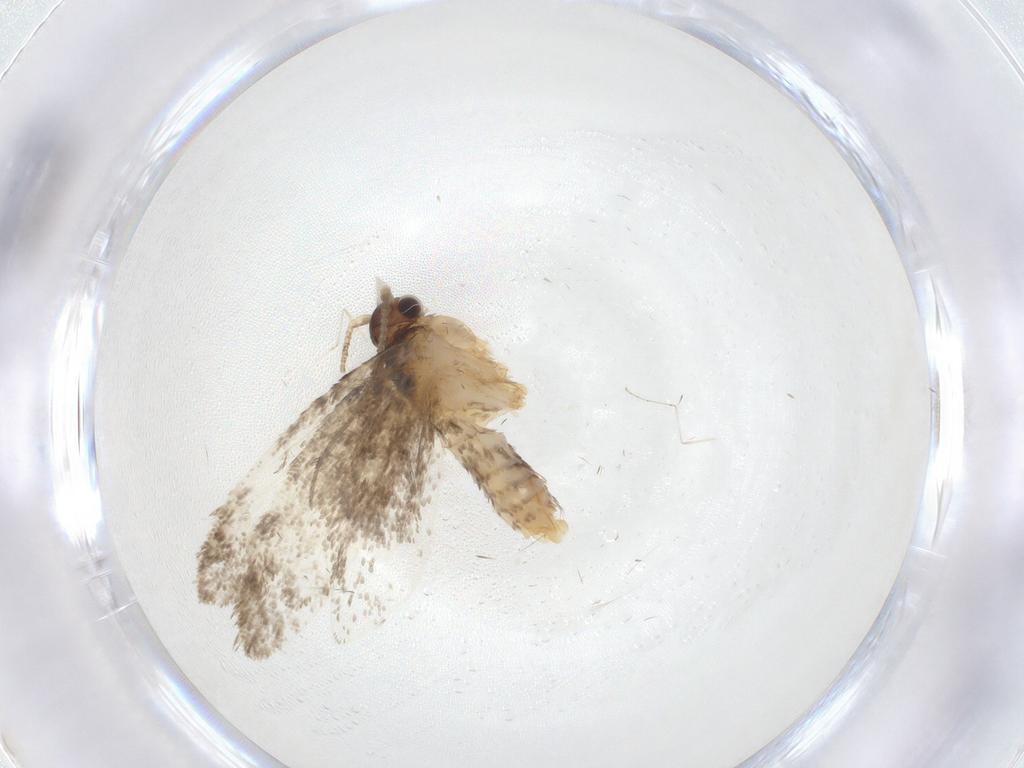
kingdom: Animalia
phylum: Arthropoda
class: Insecta
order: Lepidoptera
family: Dryadaulidae
